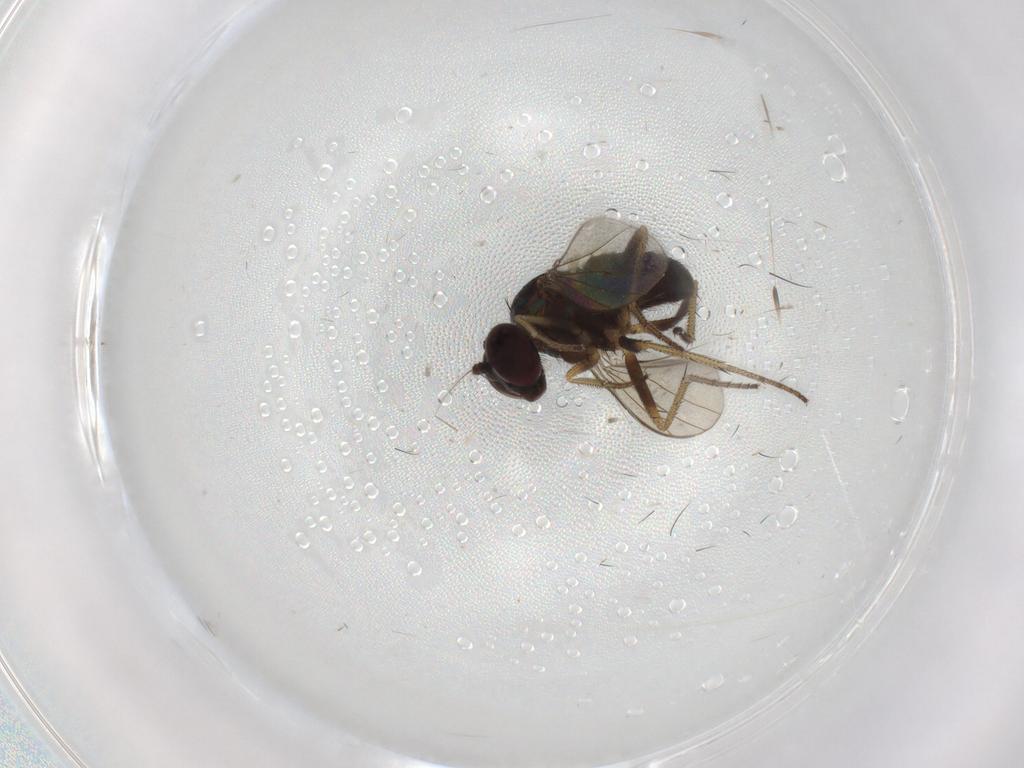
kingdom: Animalia
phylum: Arthropoda
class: Insecta
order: Diptera
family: Dolichopodidae
